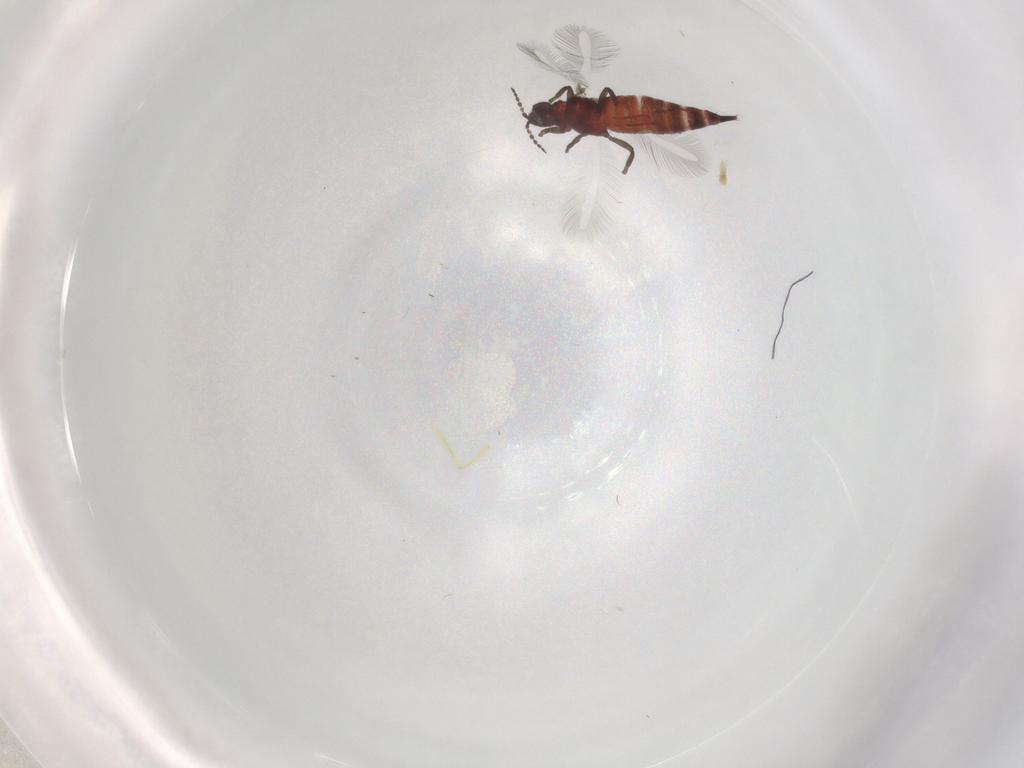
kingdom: Animalia
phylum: Arthropoda
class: Insecta
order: Thysanoptera
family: Phlaeothripidae
